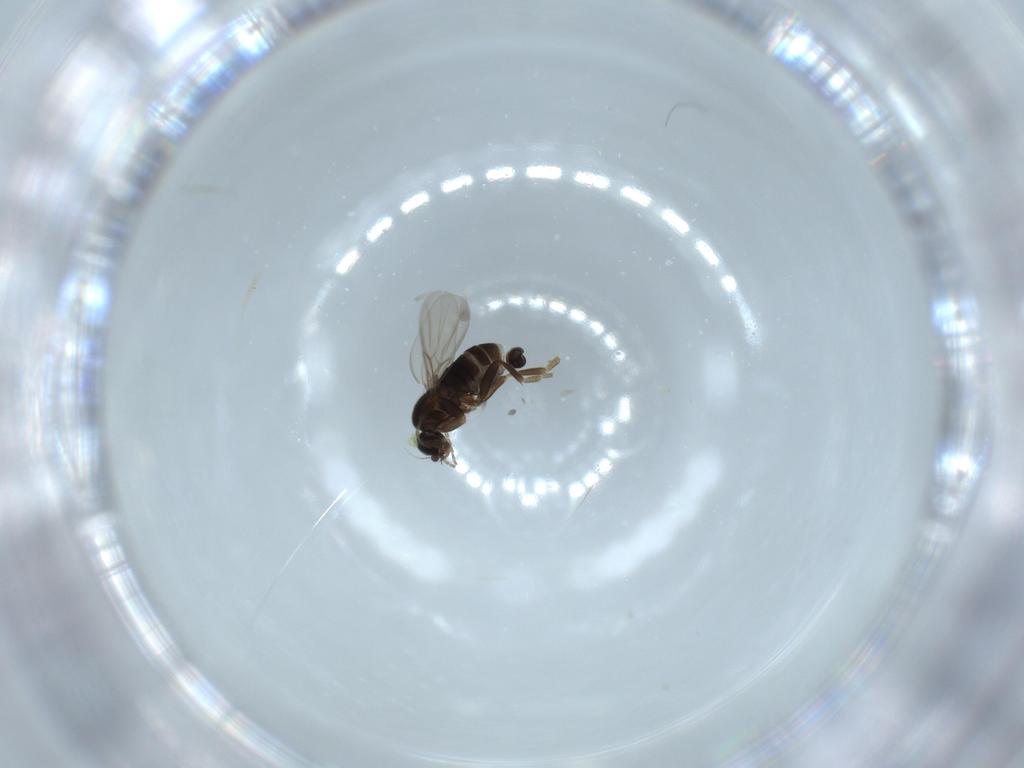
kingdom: Animalia
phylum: Arthropoda
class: Insecta
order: Diptera
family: Phoridae
